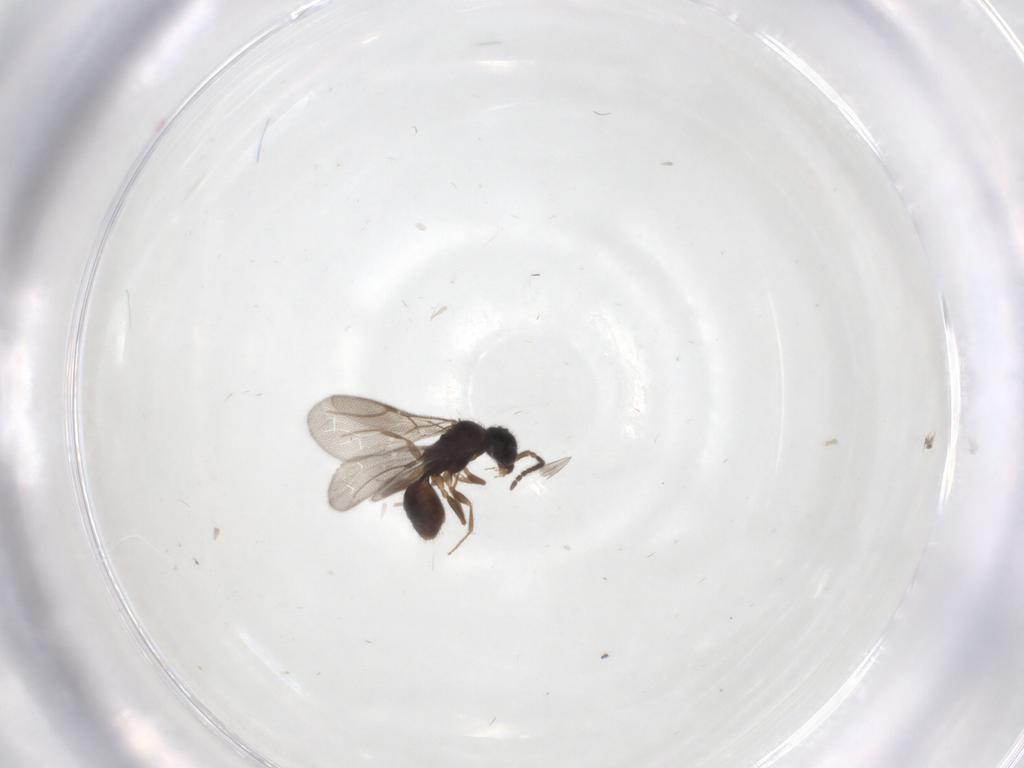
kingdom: Animalia
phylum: Arthropoda
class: Insecta
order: Hymenoptera
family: Bethylidae
